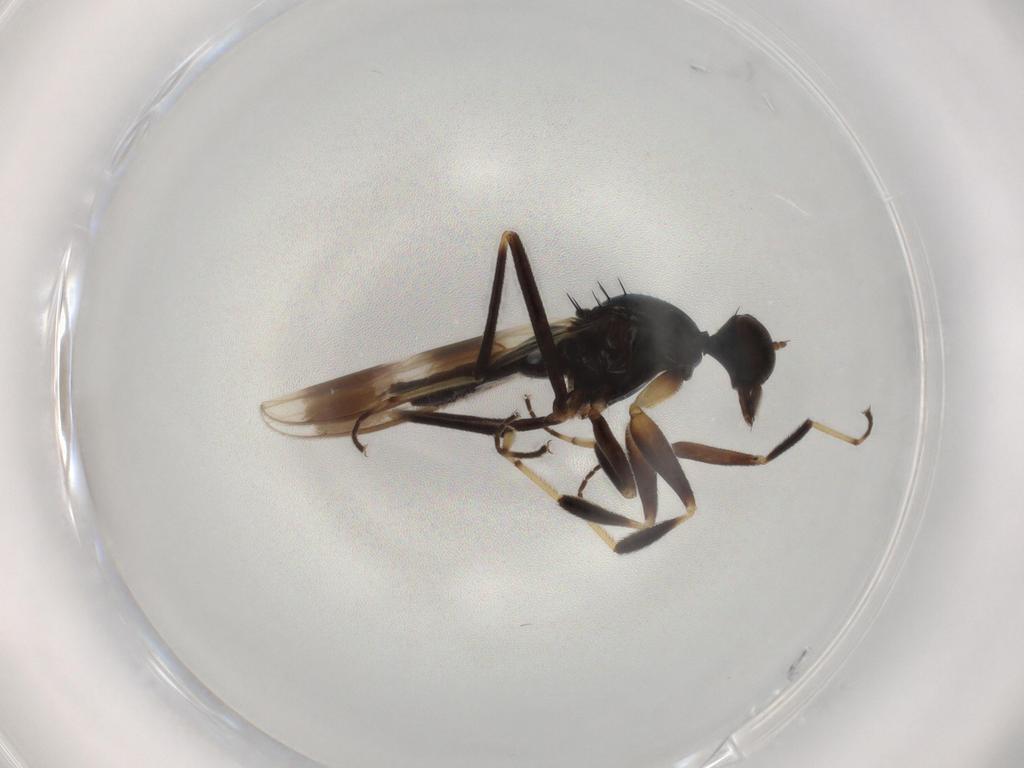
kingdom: Animalia
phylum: Arthropoda
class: Insecta
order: Diptera
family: Hybotidae
